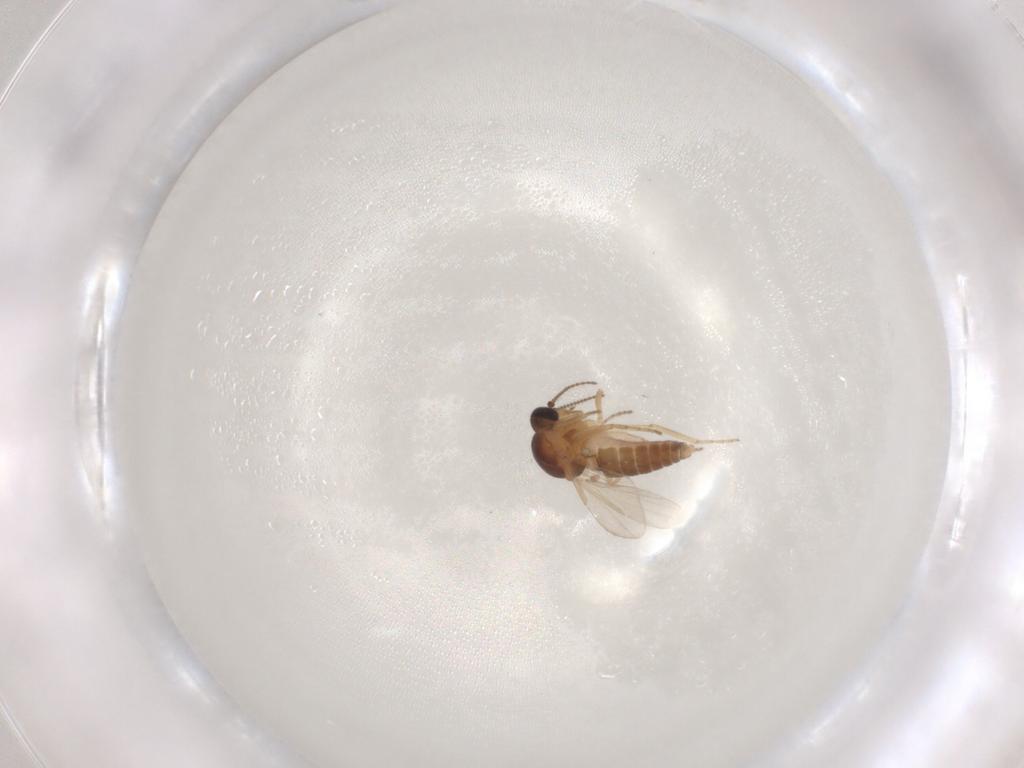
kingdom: Animalia
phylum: Arthropoda
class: Insecta
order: Diptera
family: Ceratopogonidae
